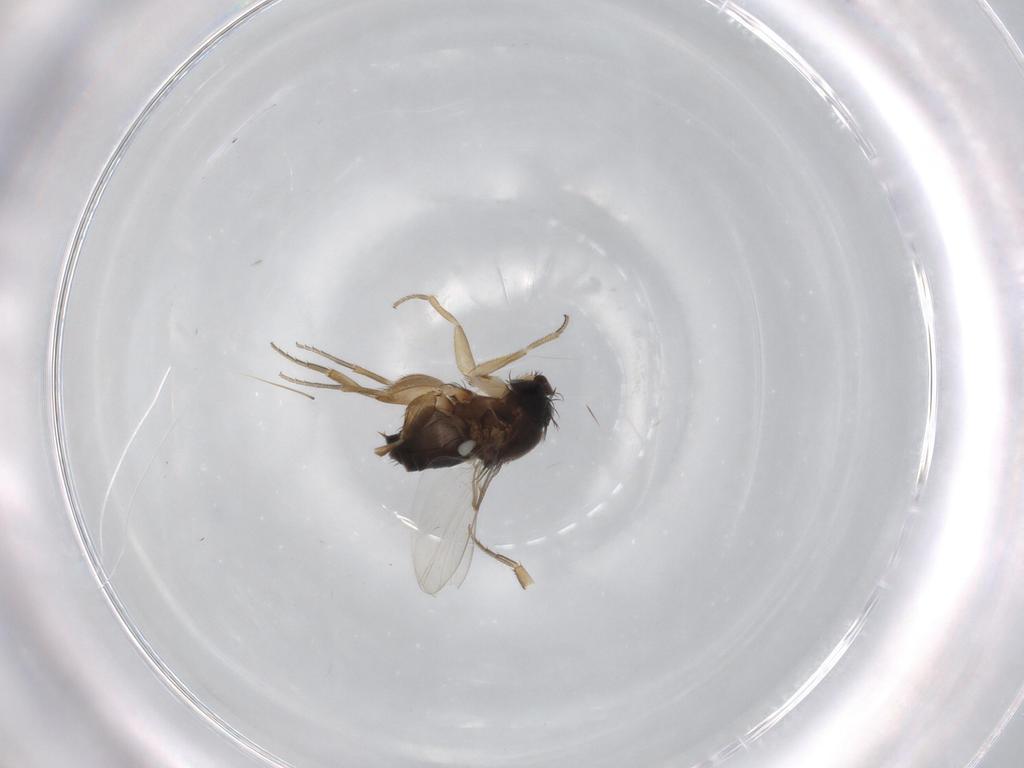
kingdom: Animalia
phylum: Arthropoda
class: Insecta
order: Diptera
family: Phoridae
